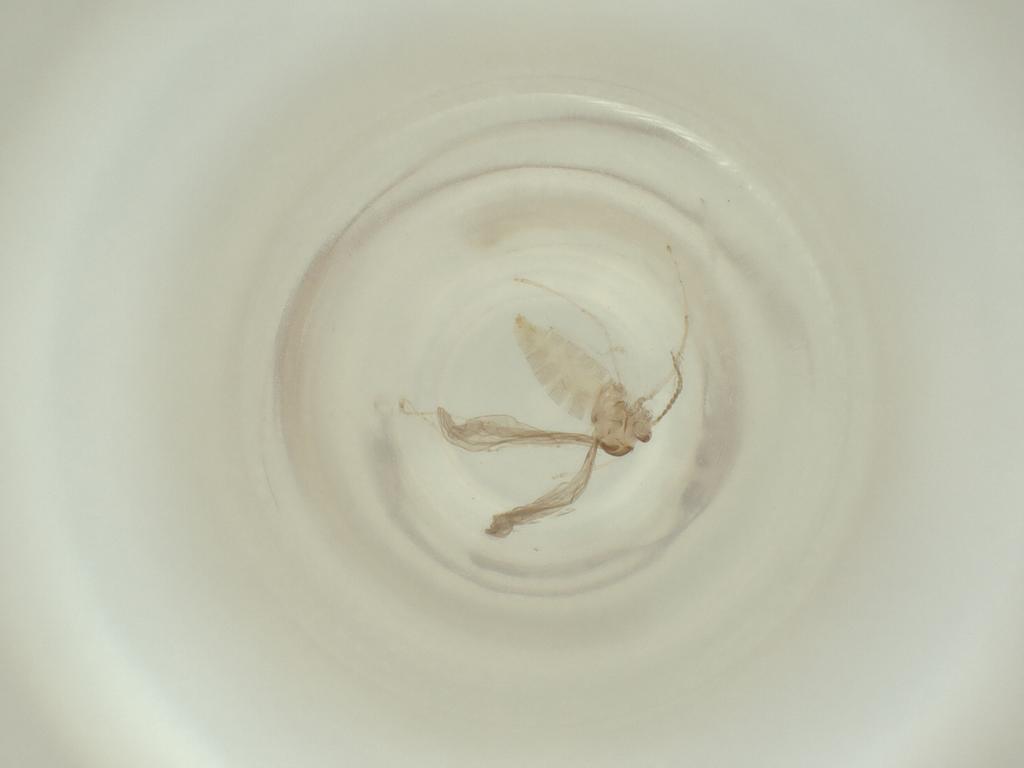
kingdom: Animalia
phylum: Arthropoda
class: Insecta
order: Diptera
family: Cecidomyiidae
